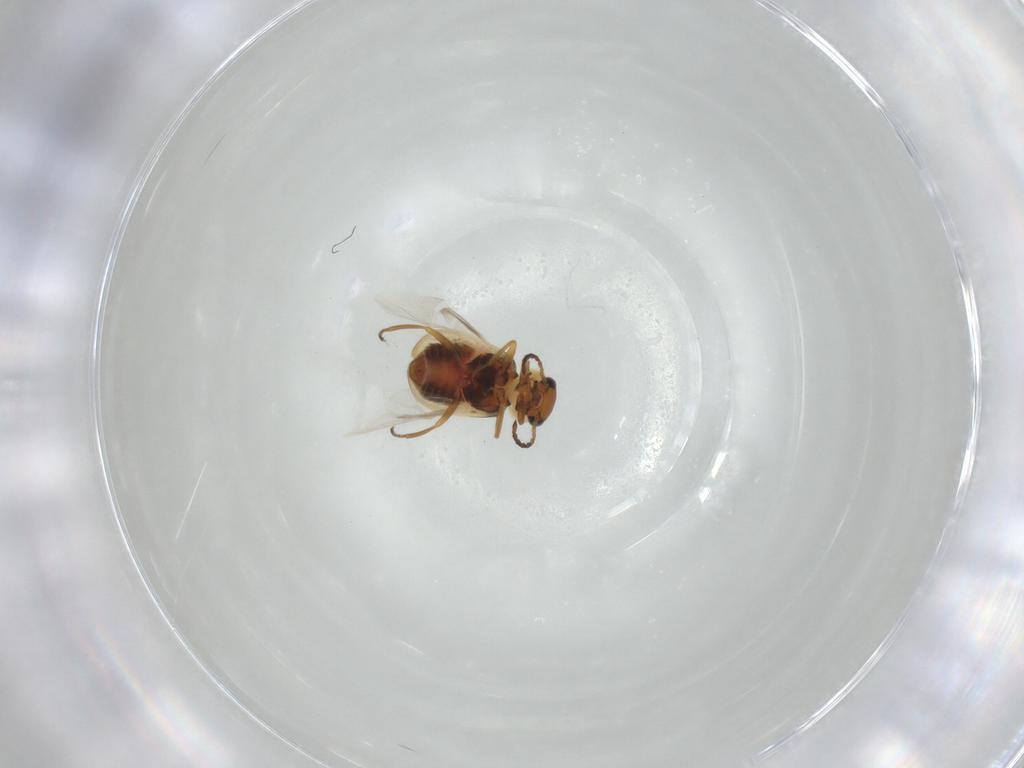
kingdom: Animalia
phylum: Arthropoda
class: Insecta
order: Coleoptera
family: Melyridae
